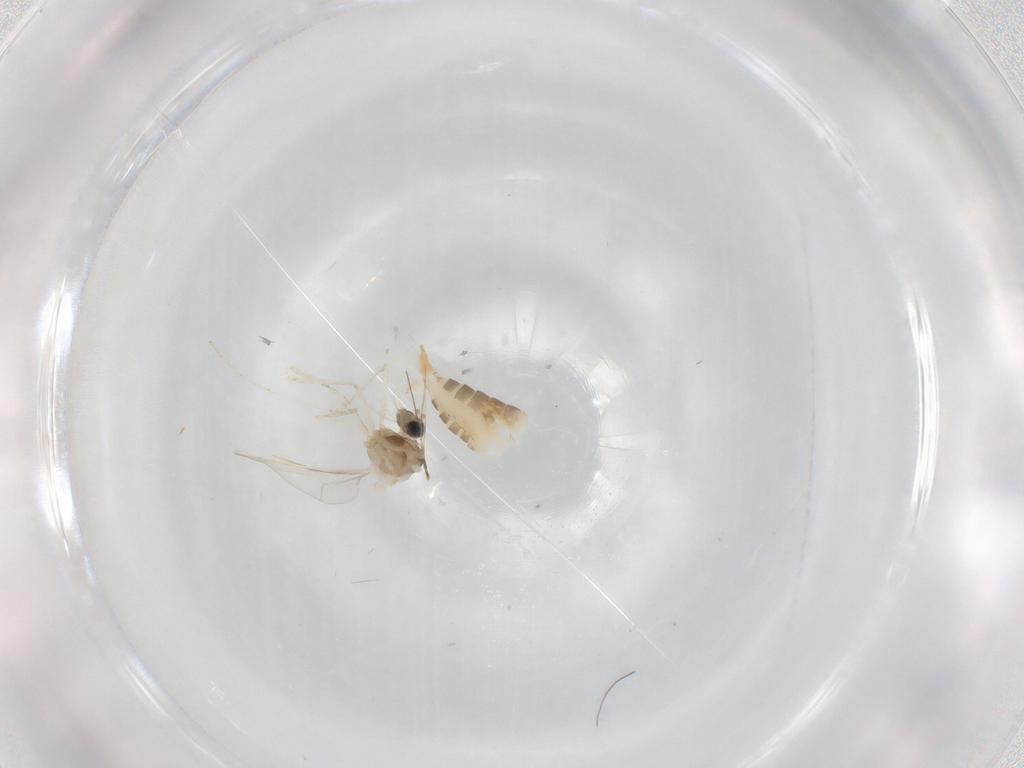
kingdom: Animalia
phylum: Arthropoda
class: Insecta
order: Diptera
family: Cecidomyiidae
